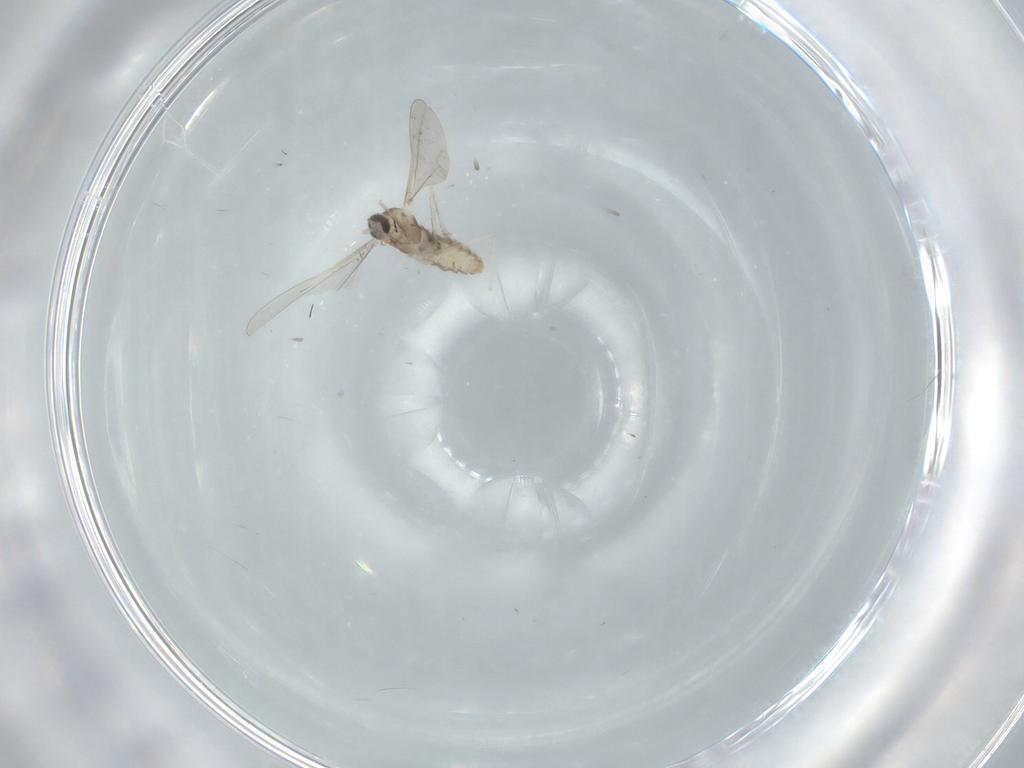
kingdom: Animalia
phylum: Arthropoda
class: Insecta
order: Diptera
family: Cecidomyiidae
